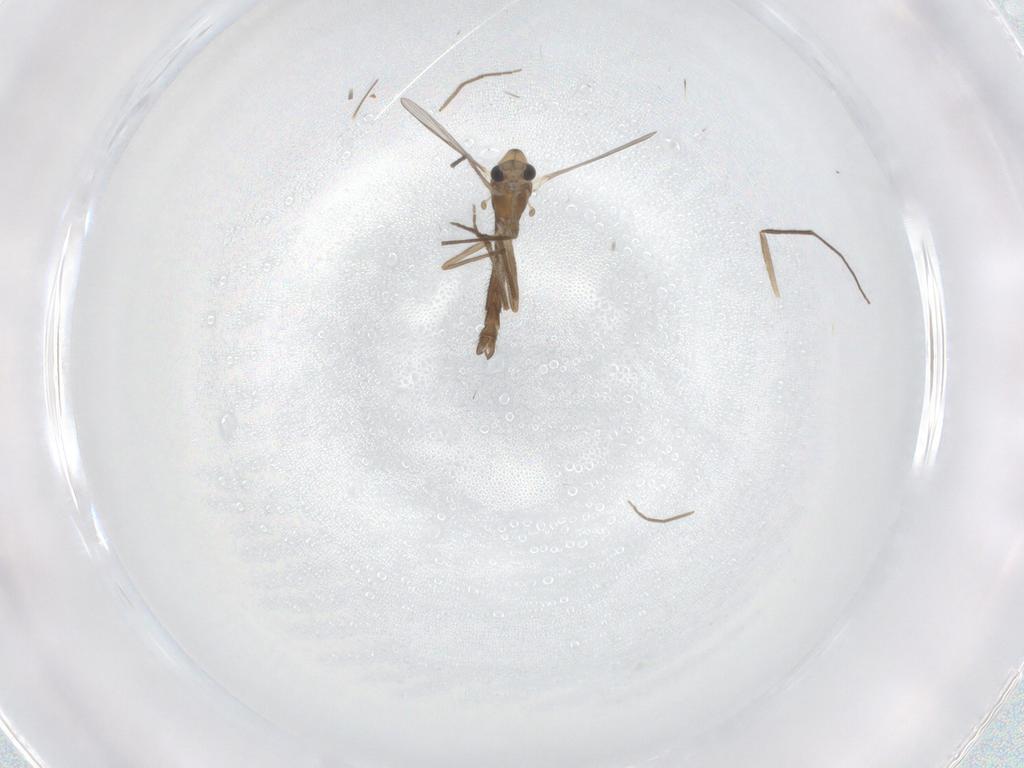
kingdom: Animalia
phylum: Arthropoda
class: Insecta
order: Diptera
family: Chironomidae
